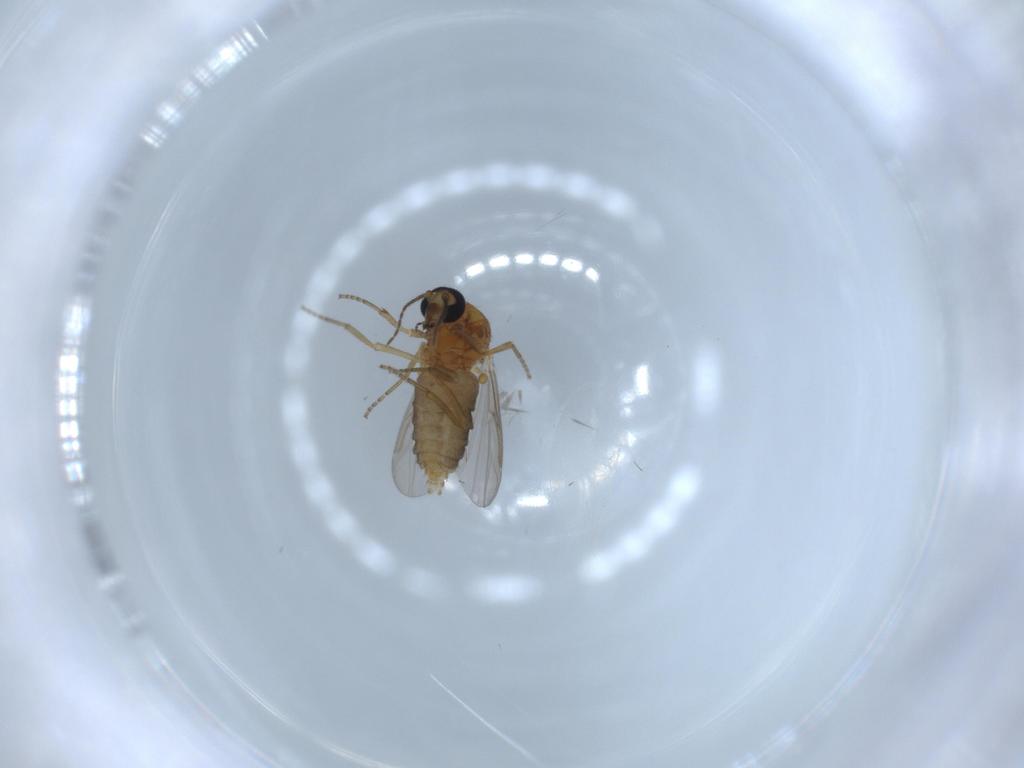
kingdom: Animalia
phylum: Arthropoda
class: Insecta
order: Diptera
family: Ceratopogonidae
